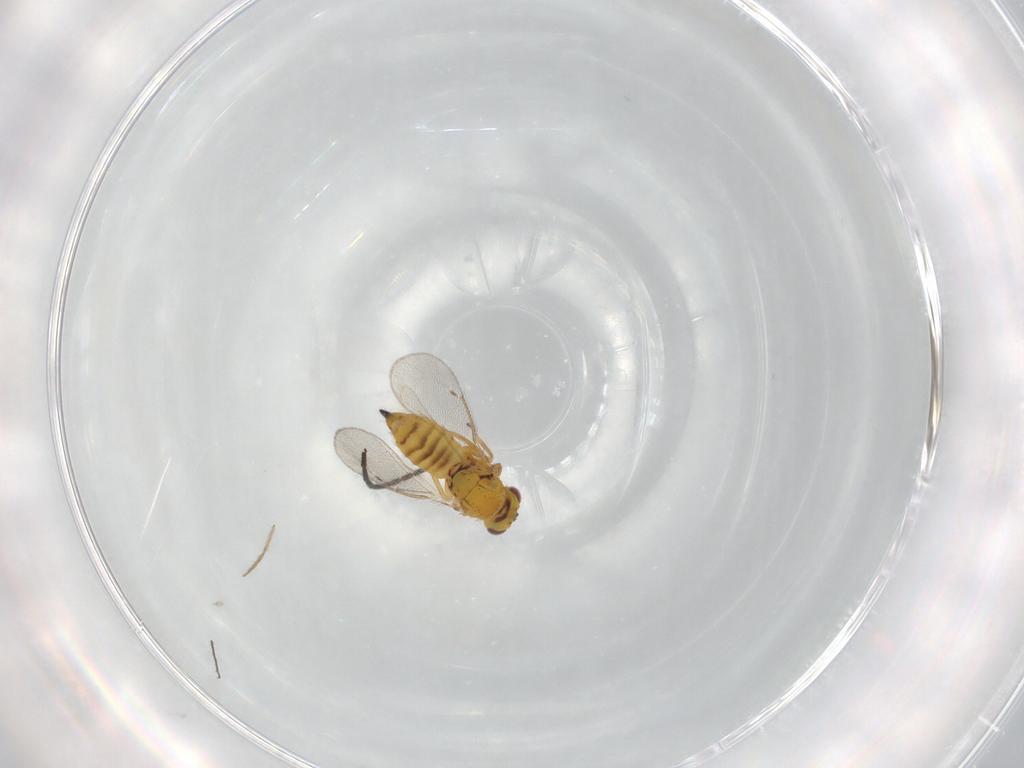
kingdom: Animalia
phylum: Arthropoda
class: Insecta
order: Hymenoptera
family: Eulophidae
